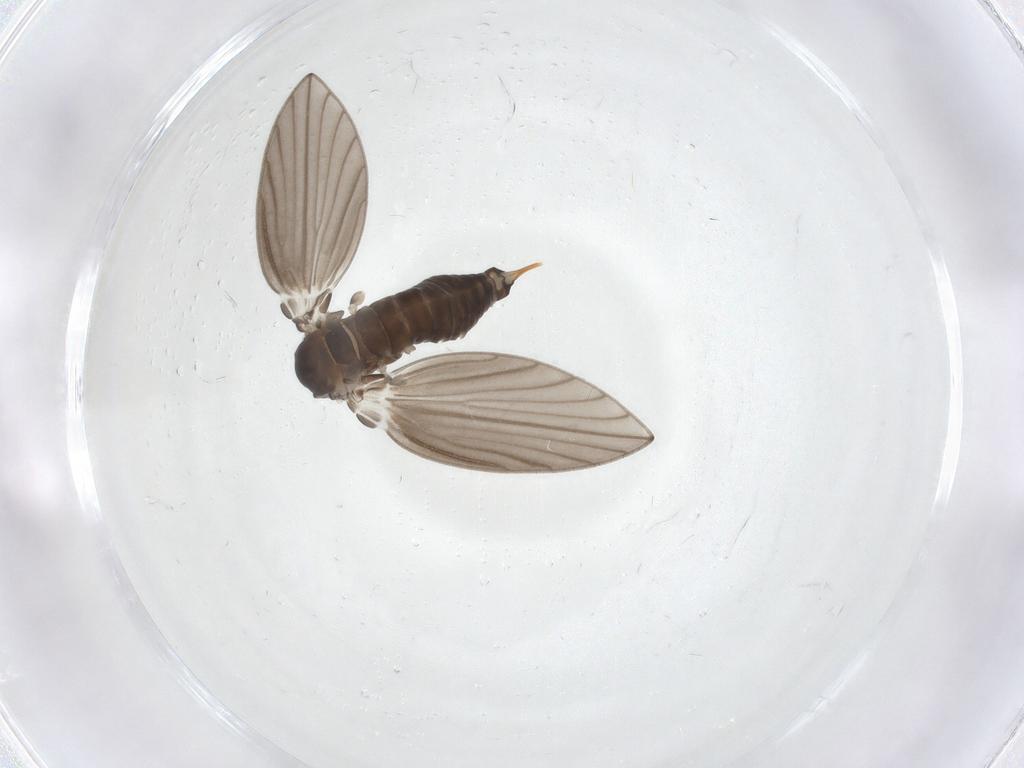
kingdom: Animalia
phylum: Arthropoda
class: Insecta
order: Diptera
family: Psychodidae
